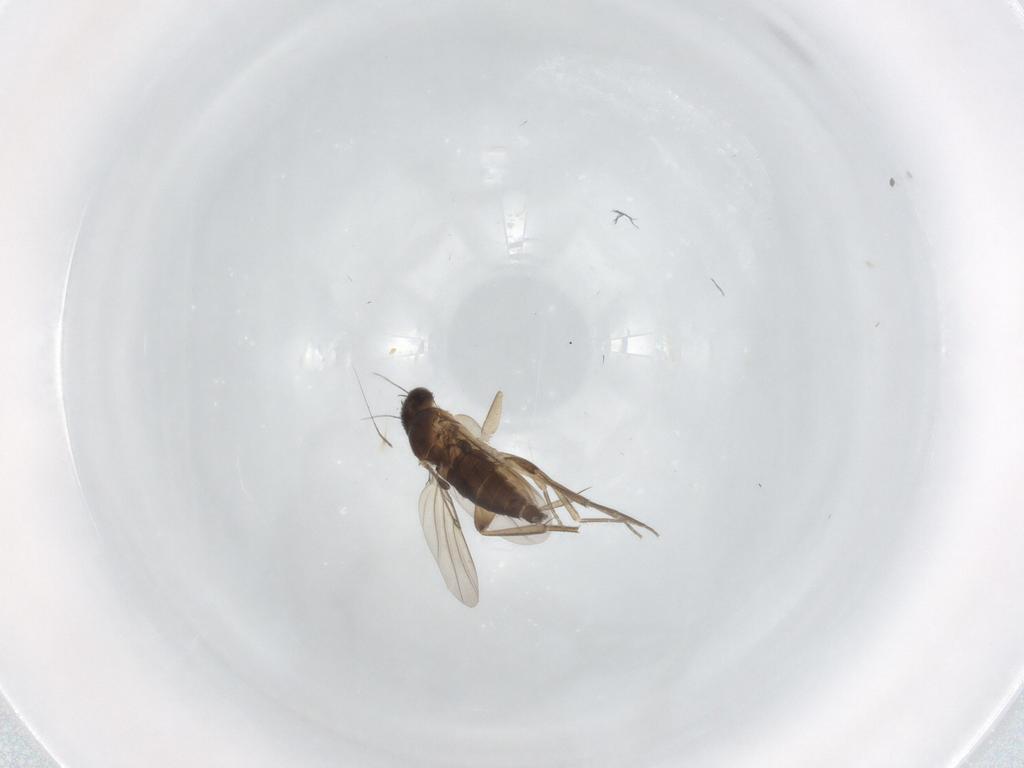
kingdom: Animalia
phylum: Arthropoda
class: Insecta
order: Diptera
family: Phoridae
